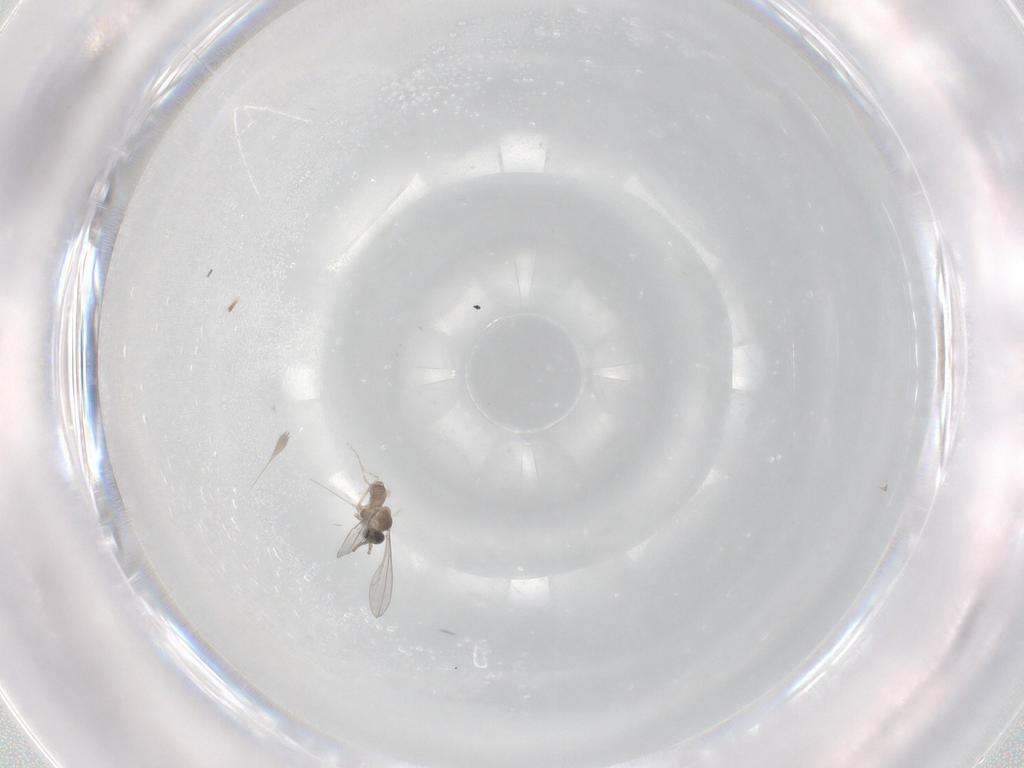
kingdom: Animalia
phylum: Arthropoda
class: Insecta
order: Diptera
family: Cecidomyiidae
